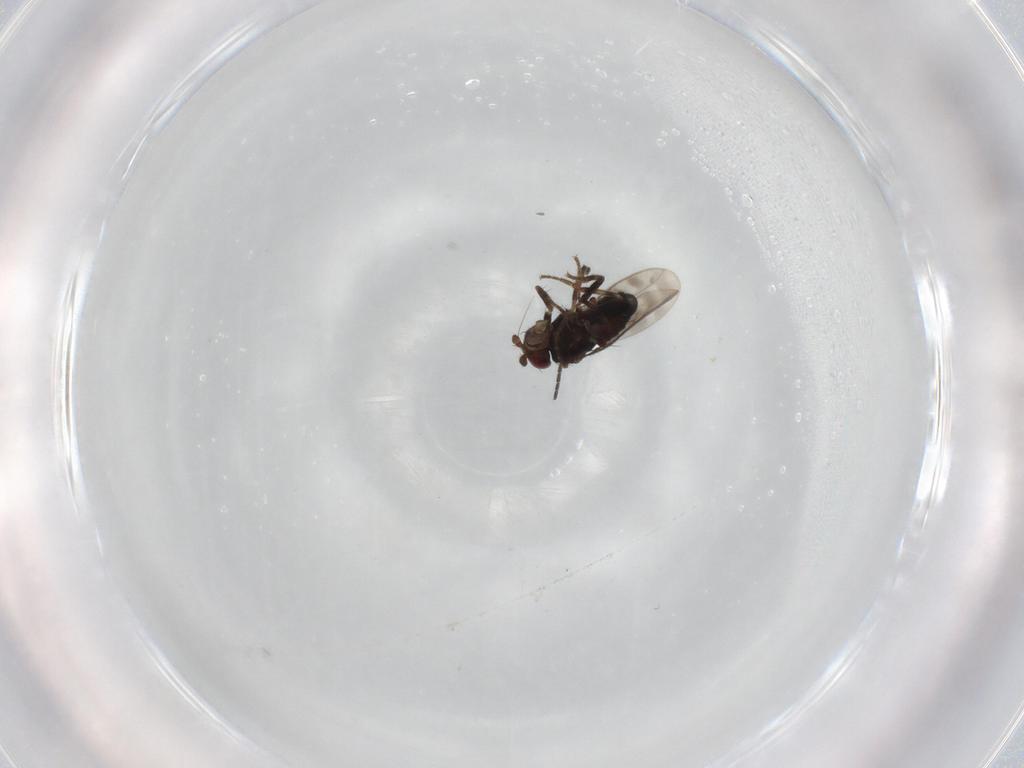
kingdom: Animalia
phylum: Arthropoda
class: Insecta
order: Diptera
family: Sphaeroceridae
